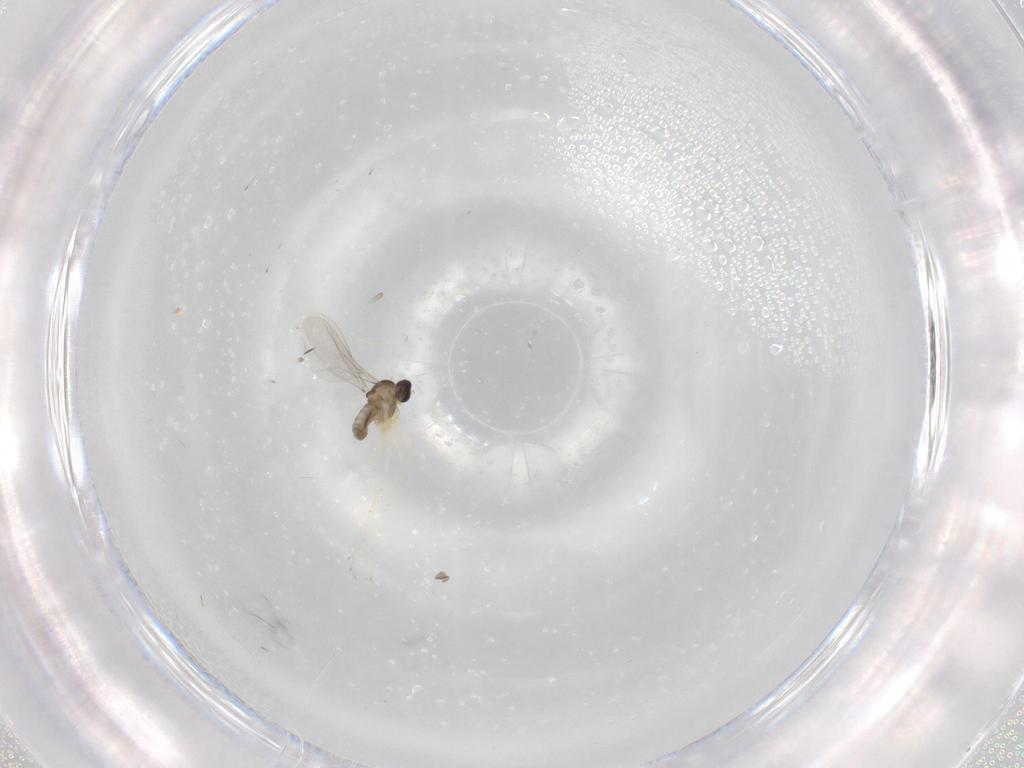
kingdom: Animalia
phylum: Arthropoda
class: Insecta
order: Diptera
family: Cecidomyiidae
